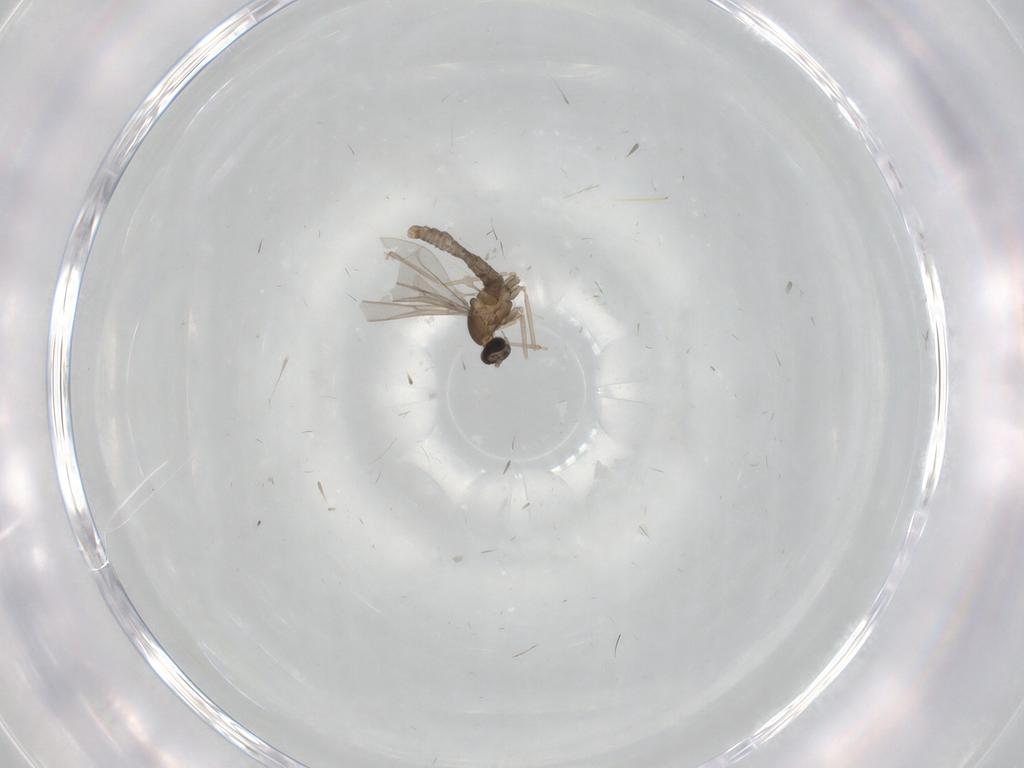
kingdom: Animalia
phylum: Arthropoda
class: Insecta
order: Diptera
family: Cecidomyiidae
